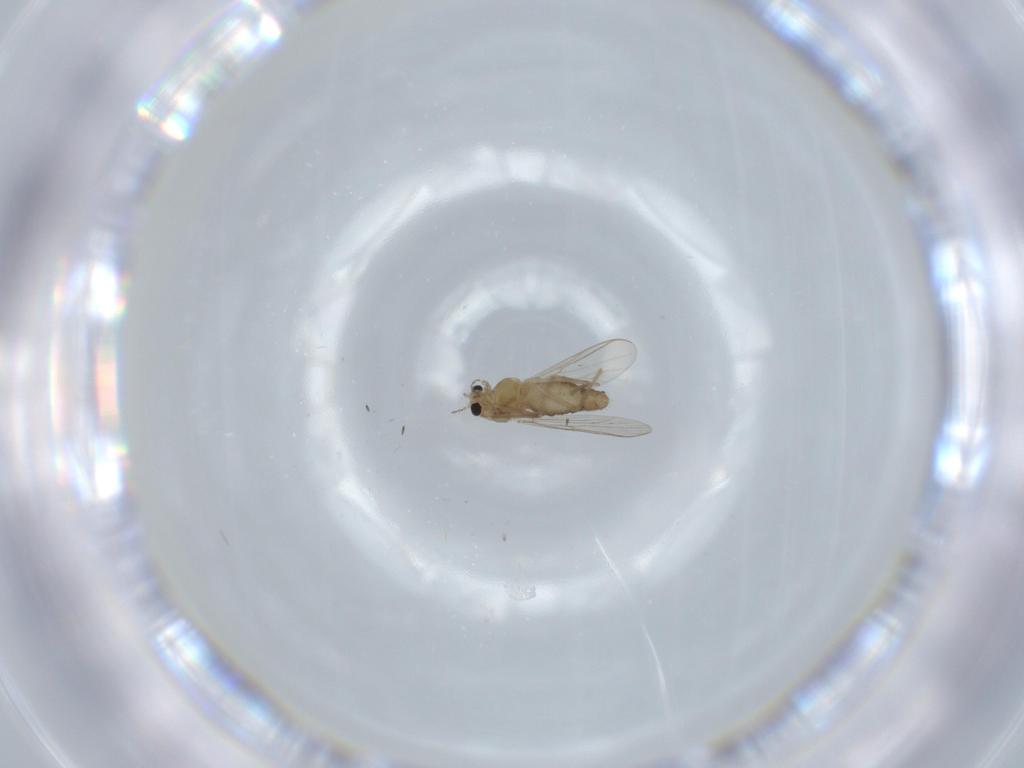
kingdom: Animalia
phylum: Arthropoda
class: Insecta
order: Diptera
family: Chironomidae
